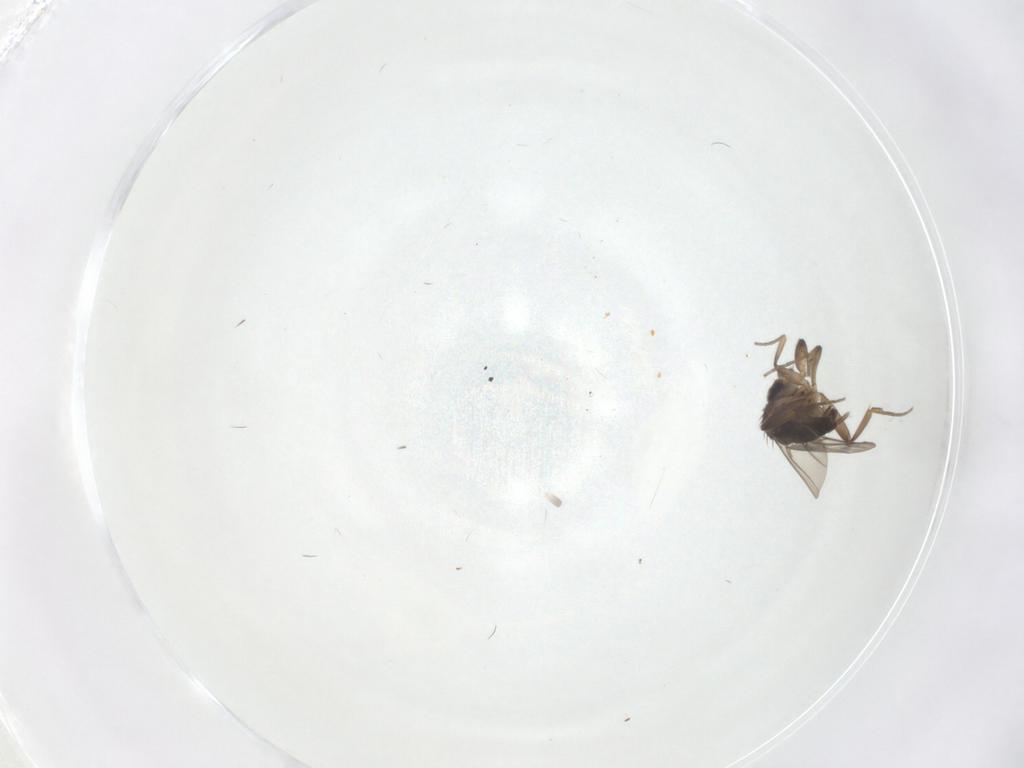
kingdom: Animalia
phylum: Arthropoda
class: Insecta
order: Diptera
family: Phoridae
